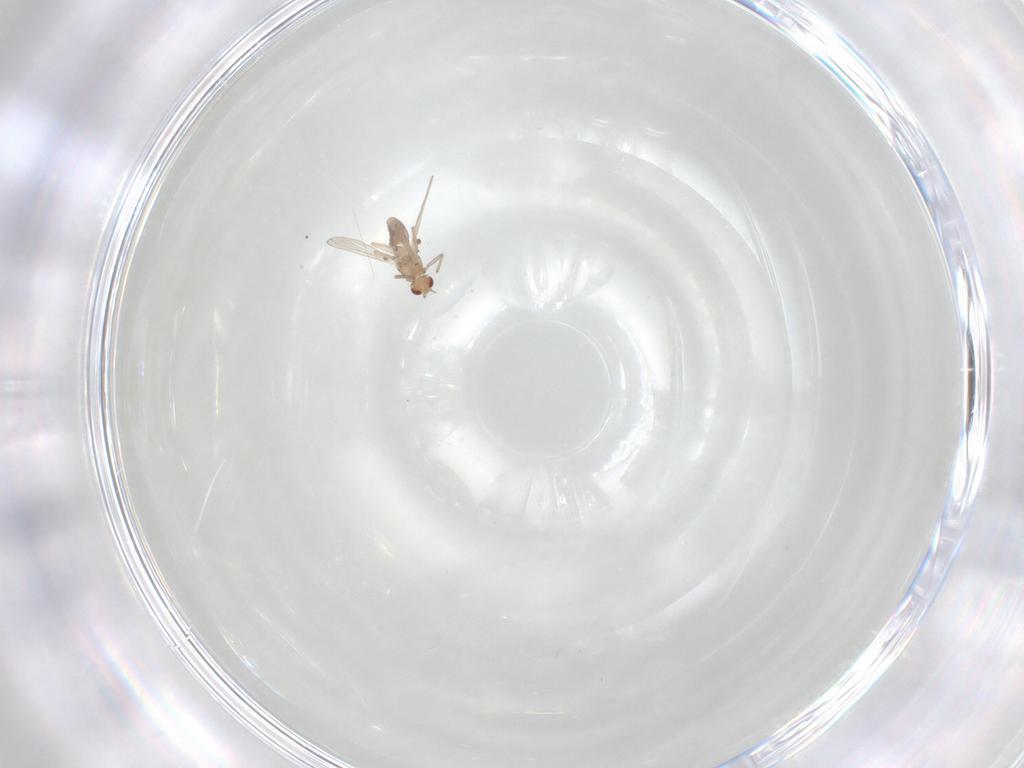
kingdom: Animalia
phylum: Arthropoda
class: Insecta
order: Diptera
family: Chironomidae
